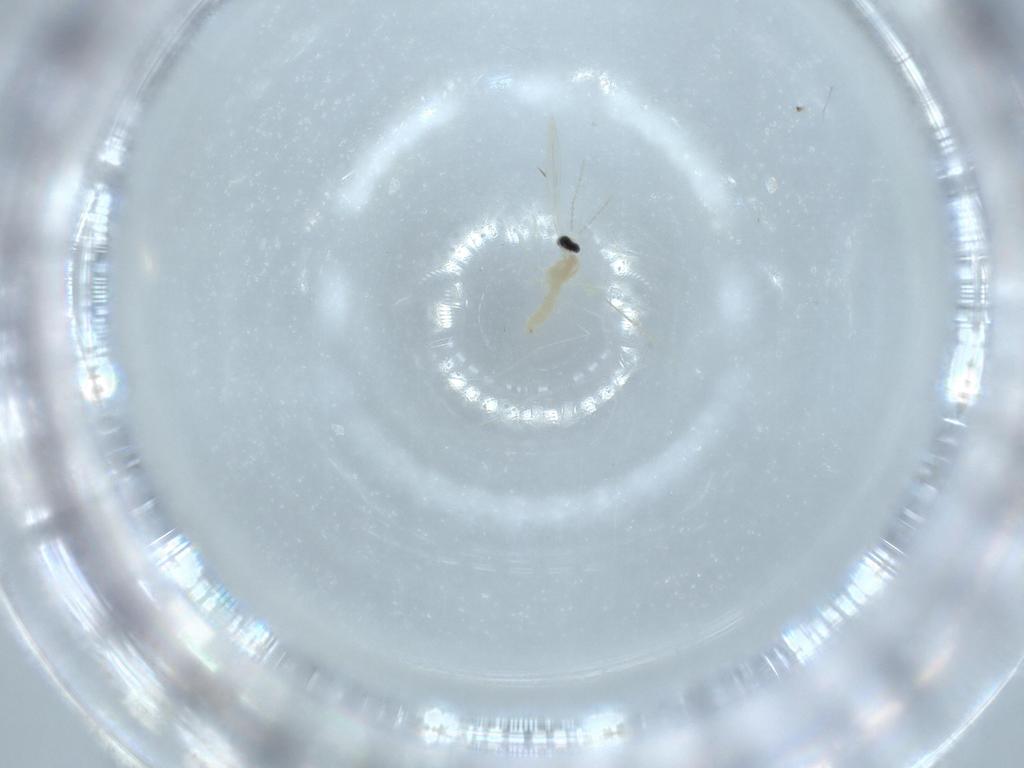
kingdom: Animalia
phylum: Arthropoda
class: Insecta
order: Diptera
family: Cecidomyiidae
